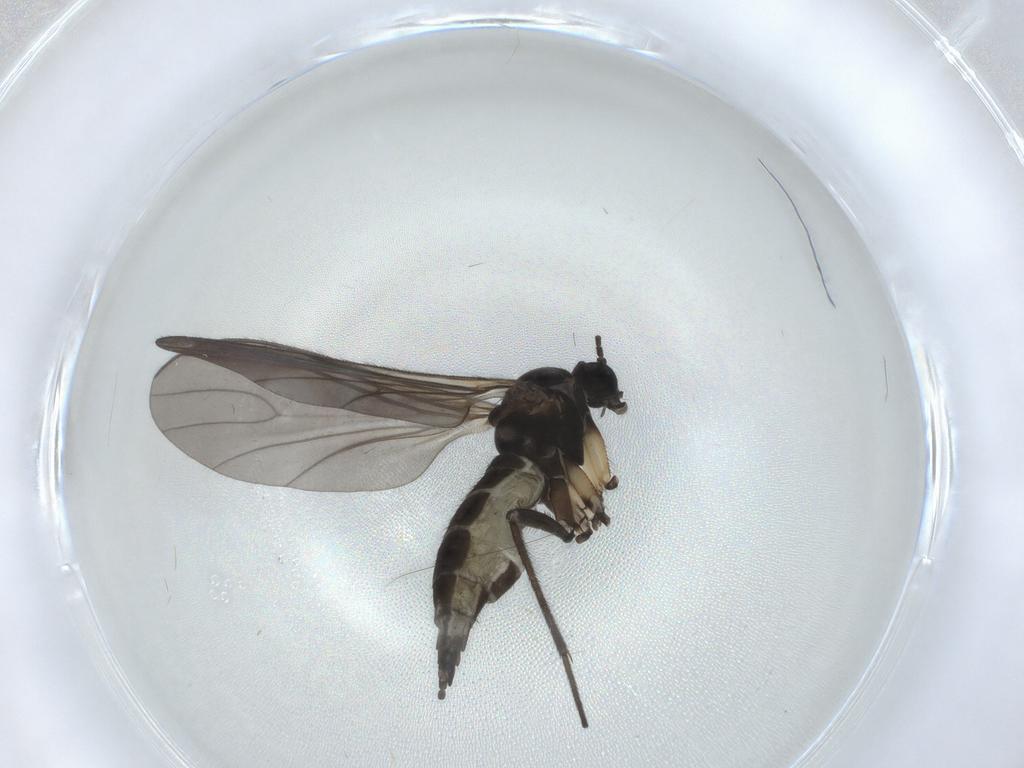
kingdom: Animalia
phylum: Arthropoda
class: Insecta
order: Diptera
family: Sciaridae
